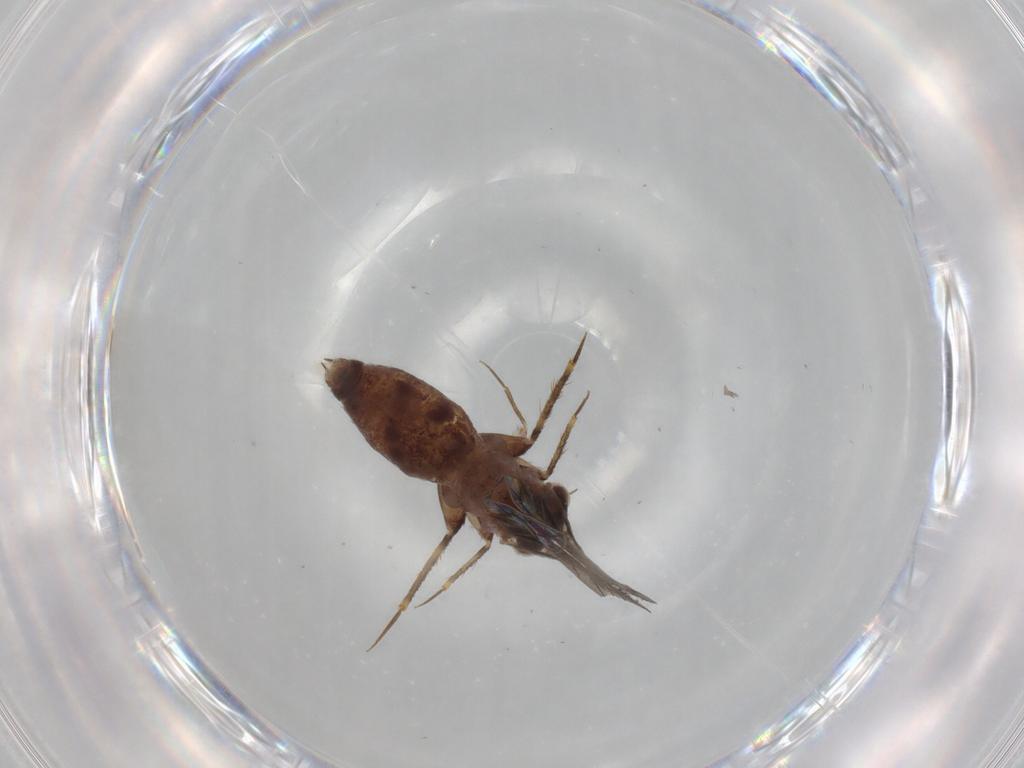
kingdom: Animalia
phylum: Arthropoda
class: Insecta
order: Psocodea
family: Lepidopsocidae
